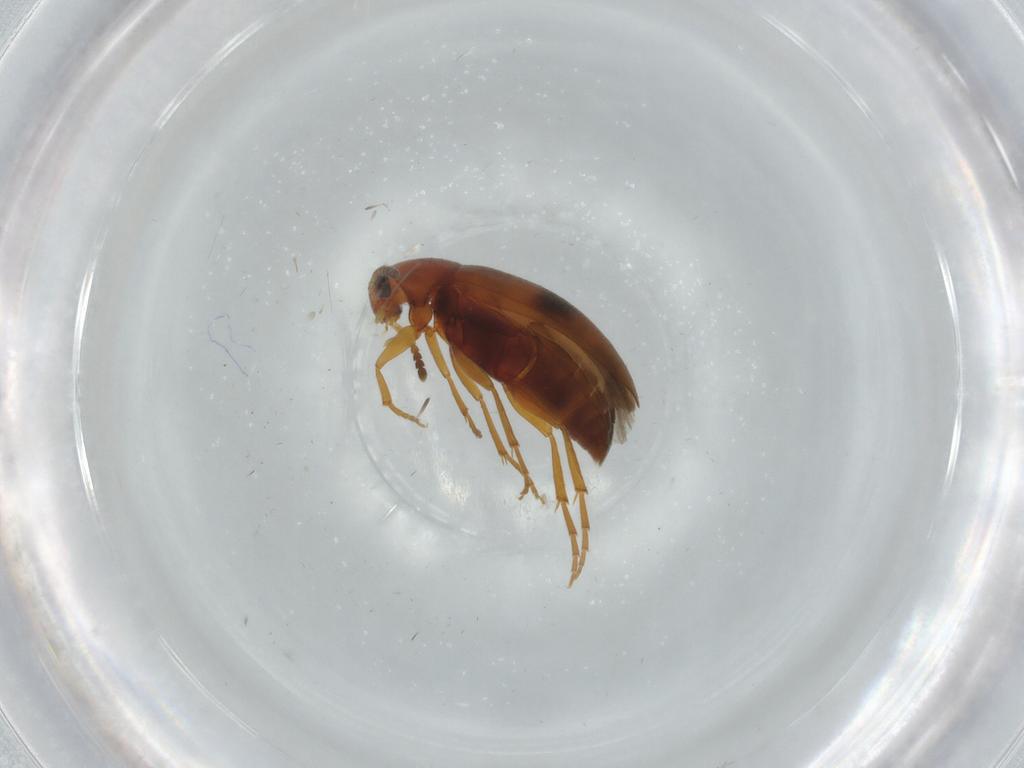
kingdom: Animalia
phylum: Arthropoda
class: Insecta
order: Coleoptera
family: Scraptiidae
